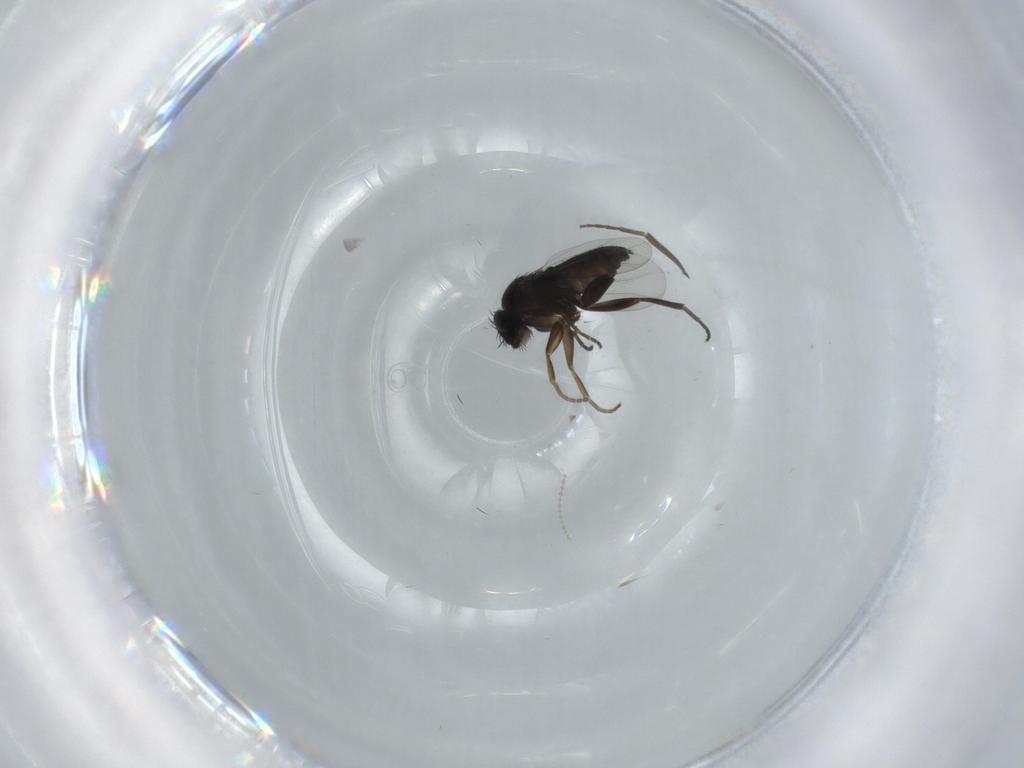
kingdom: Animalia
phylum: Arthropoda
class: Insecta
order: Diptera
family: Phoridae
